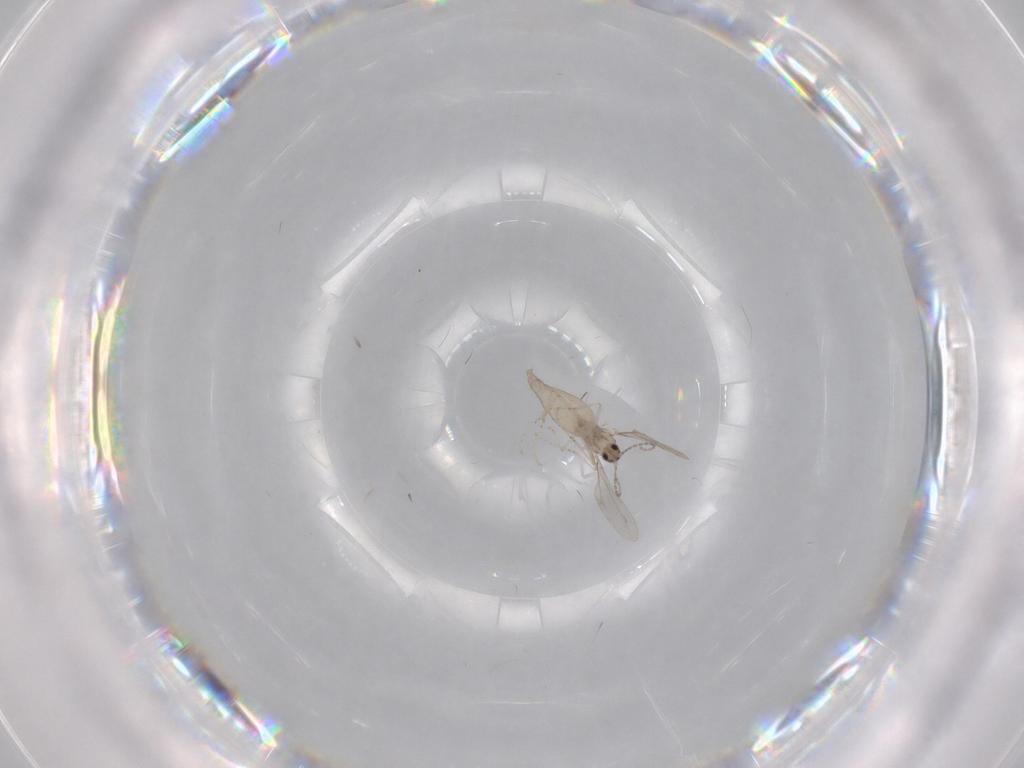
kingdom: Animalia
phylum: Arthropoda
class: Insecta
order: Diptera
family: Cecidomyiidae
